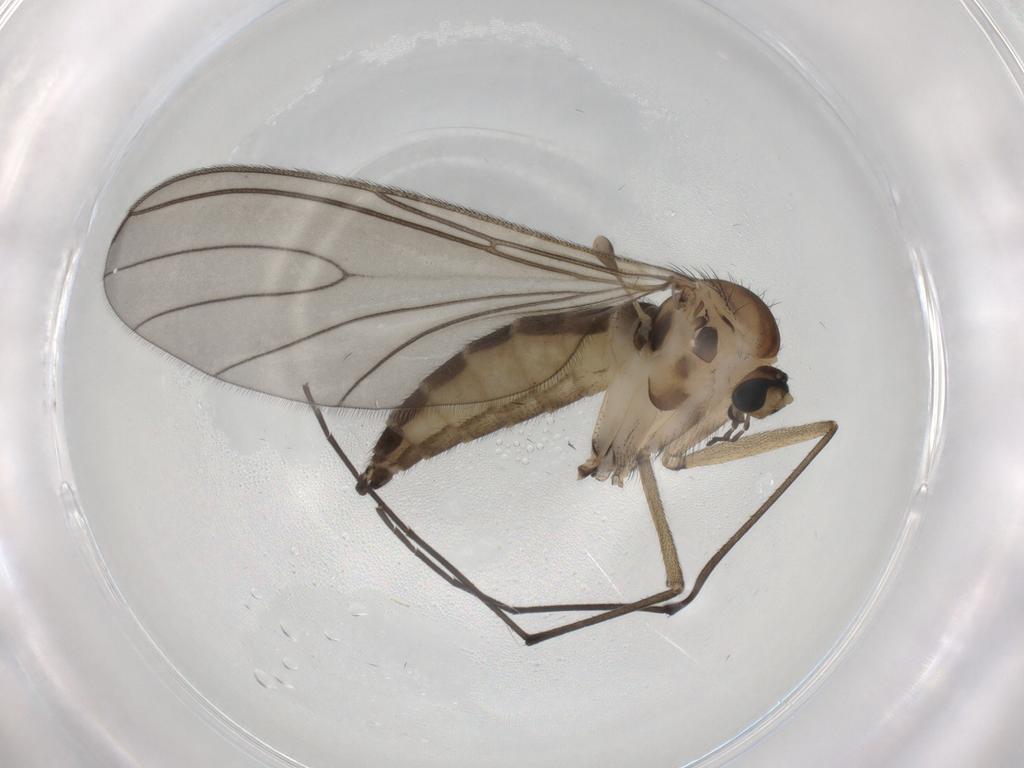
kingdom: Animalia
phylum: Arthropoda
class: Insecta
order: Diptera
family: Sciaridae
